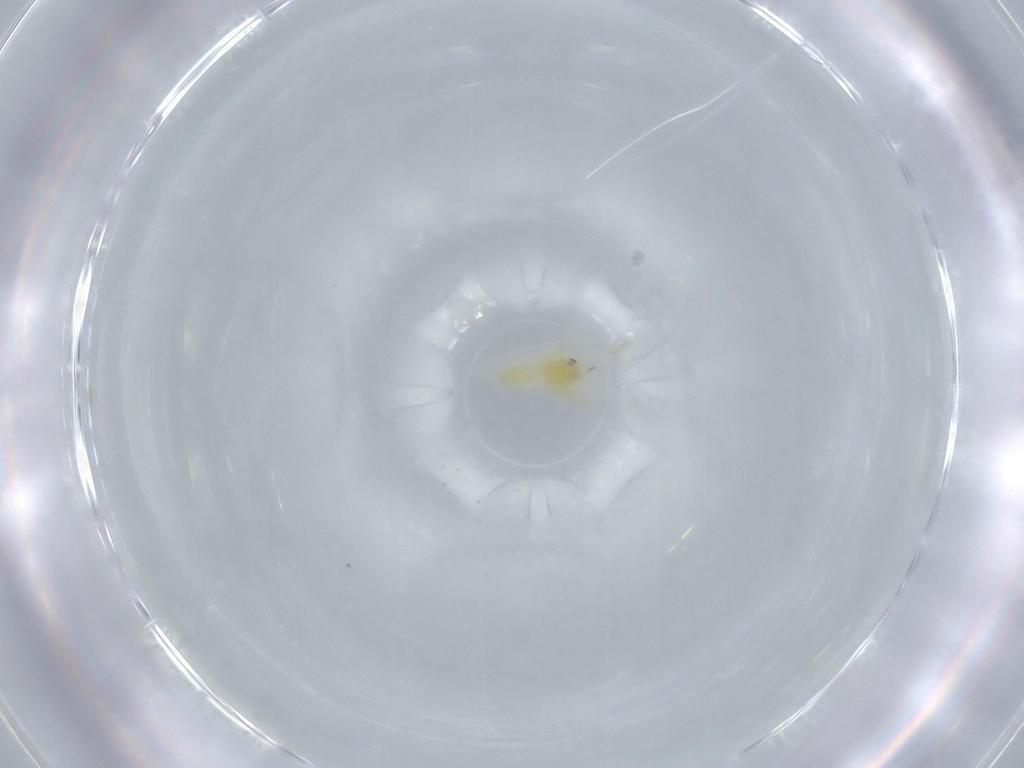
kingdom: Animalia
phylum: Arthropoda
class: Insecta
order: Hemiptera
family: Aleyrodidae
